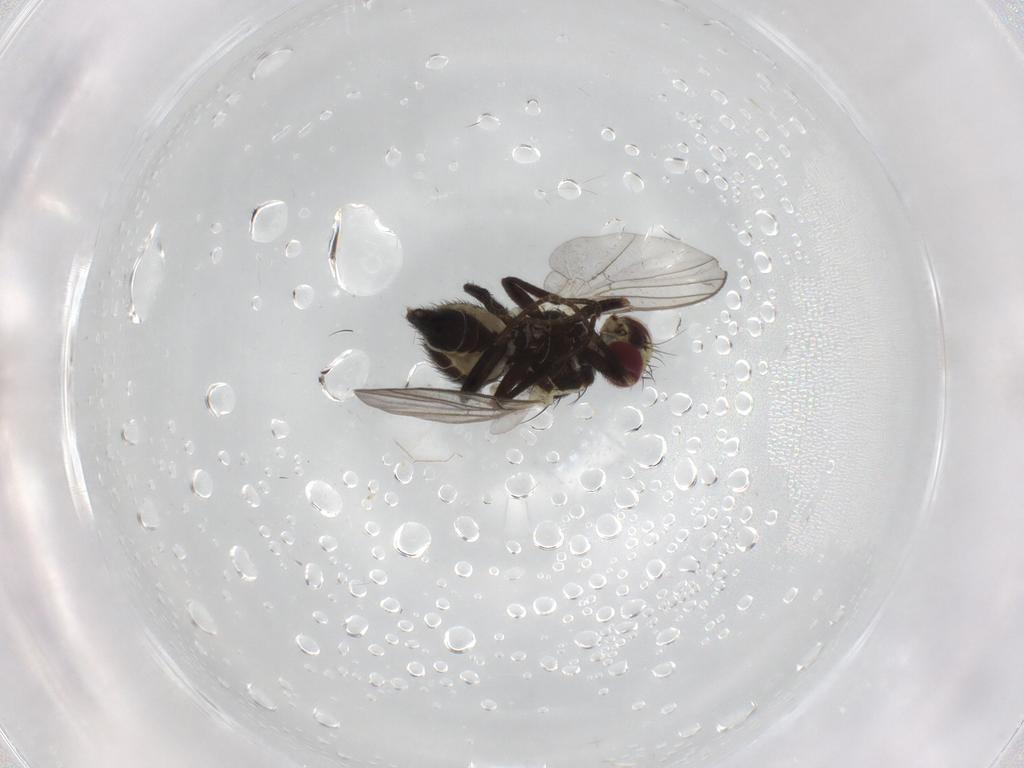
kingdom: Animalia
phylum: Arthropoda
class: Insecta
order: Diptera
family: Agromyzidae
